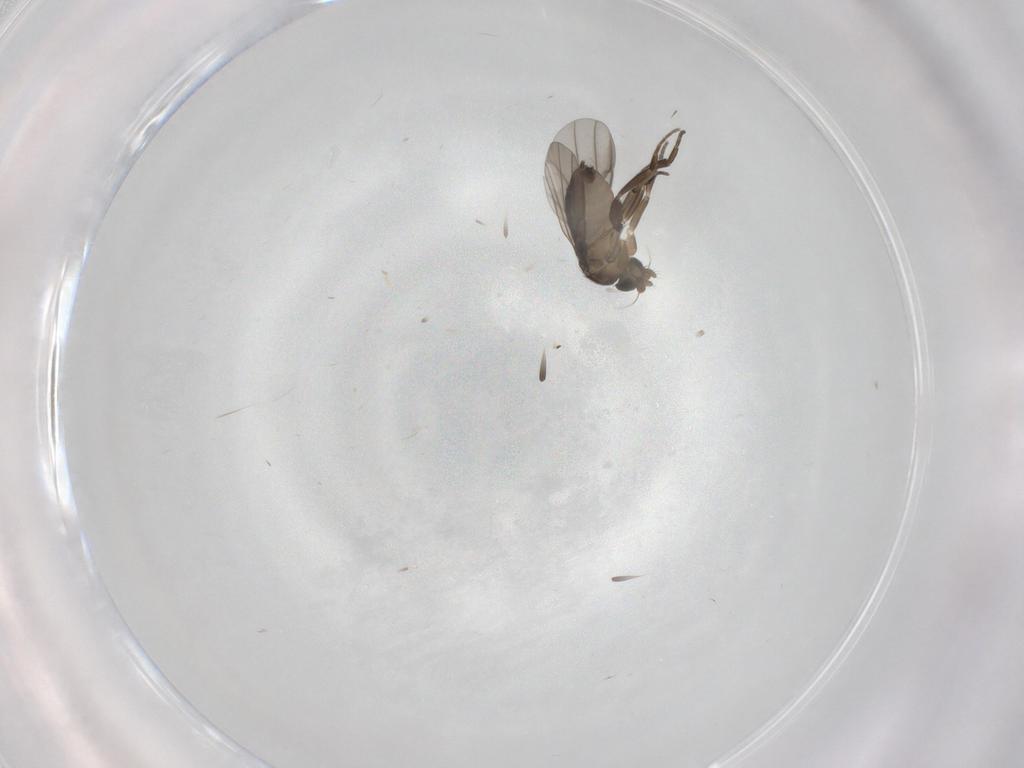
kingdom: Animalia
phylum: Arthropoda
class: Insecta
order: Diptera
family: Phoridae
